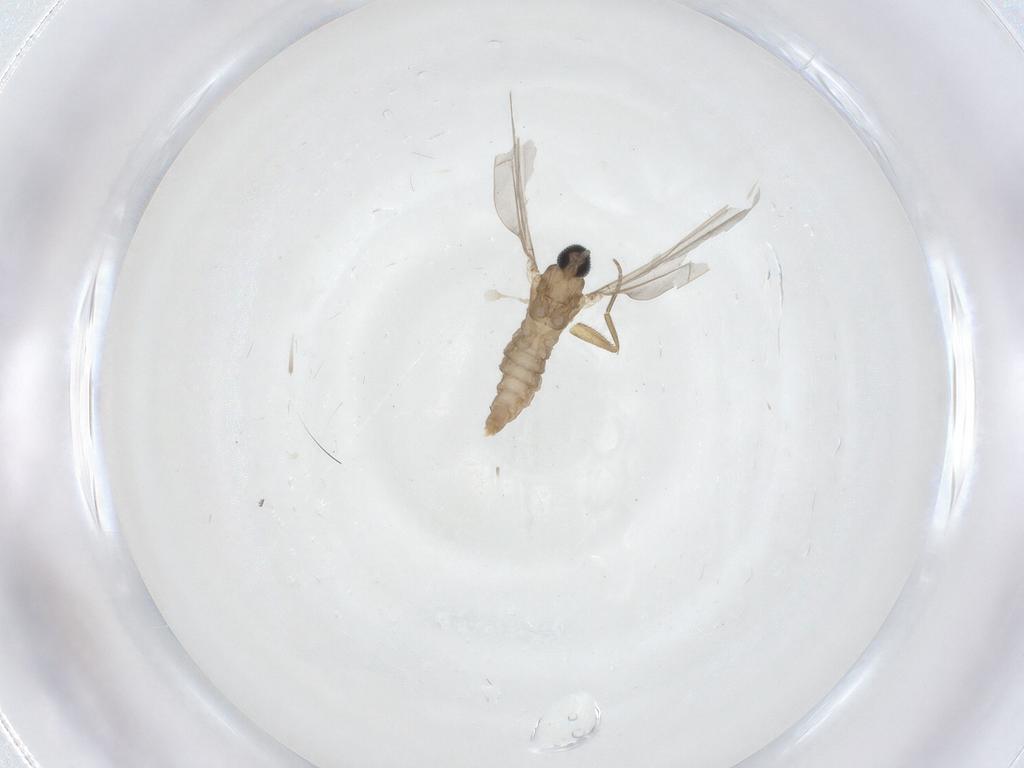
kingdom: Animalia
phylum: Arthropoda
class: Insecta
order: Diptera
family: Cecidomyiidae
